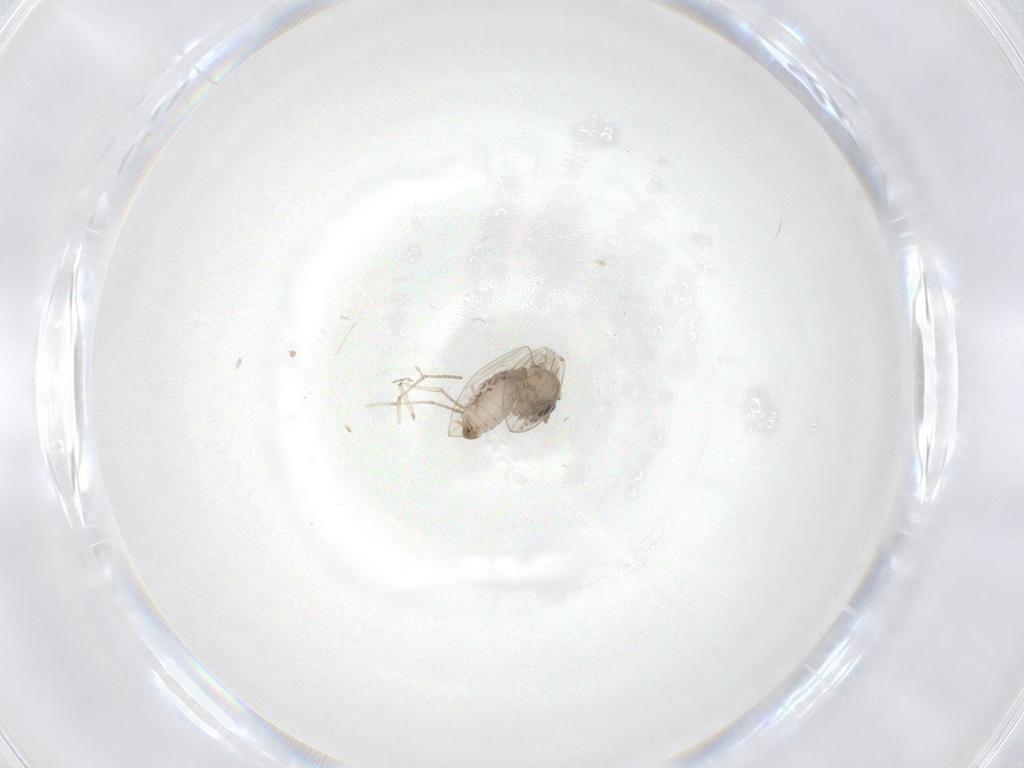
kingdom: Animalia
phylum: Arthropoda
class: Insecta
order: Diptera
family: Psychodidae
